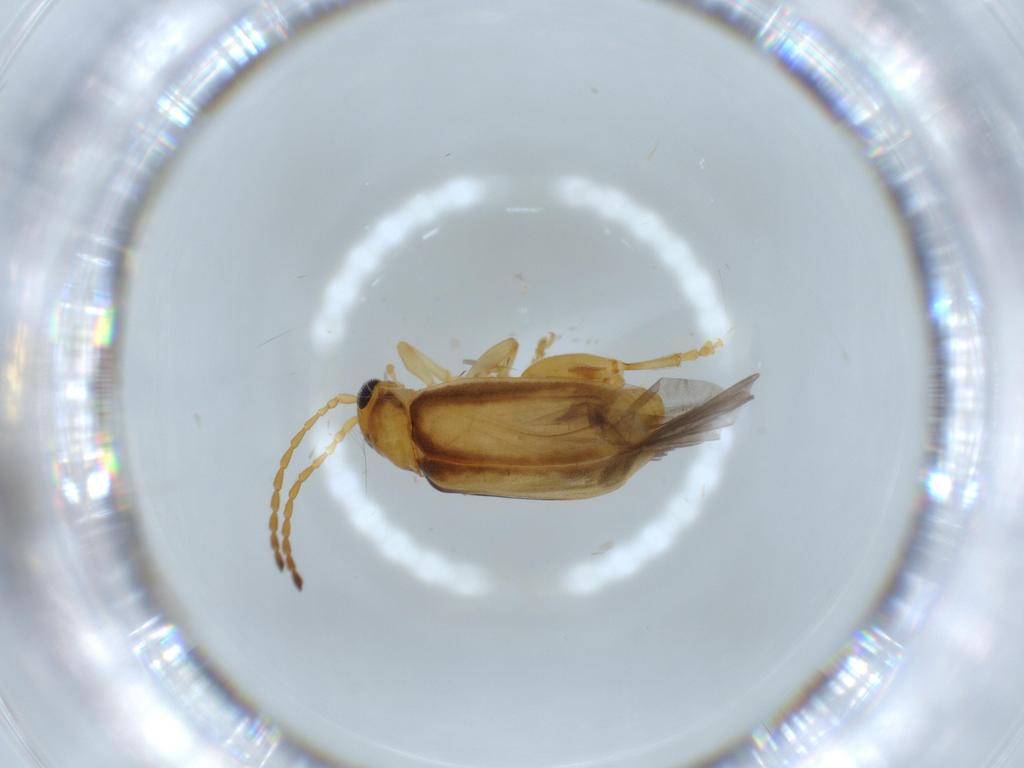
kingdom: Animalia
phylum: Arthropoda
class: Insecta
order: Coleoptera
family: Chrysomelidae
